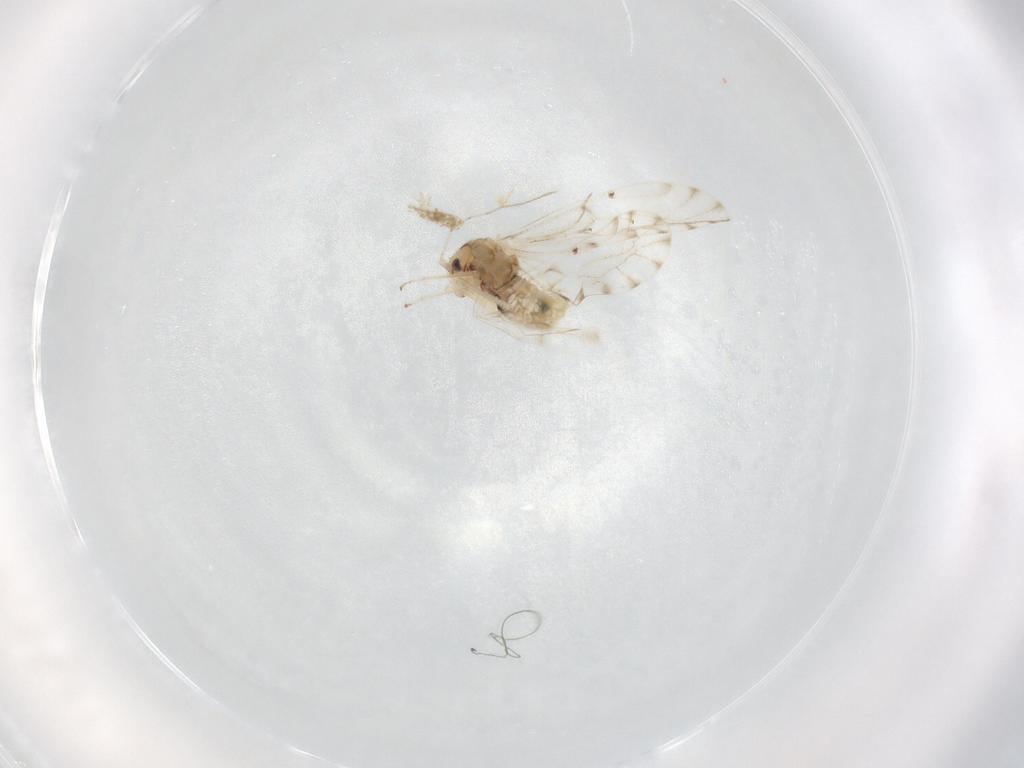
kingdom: Animalia
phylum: Arthropoda
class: Insecta
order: Psocodea
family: Ectopsocidae
